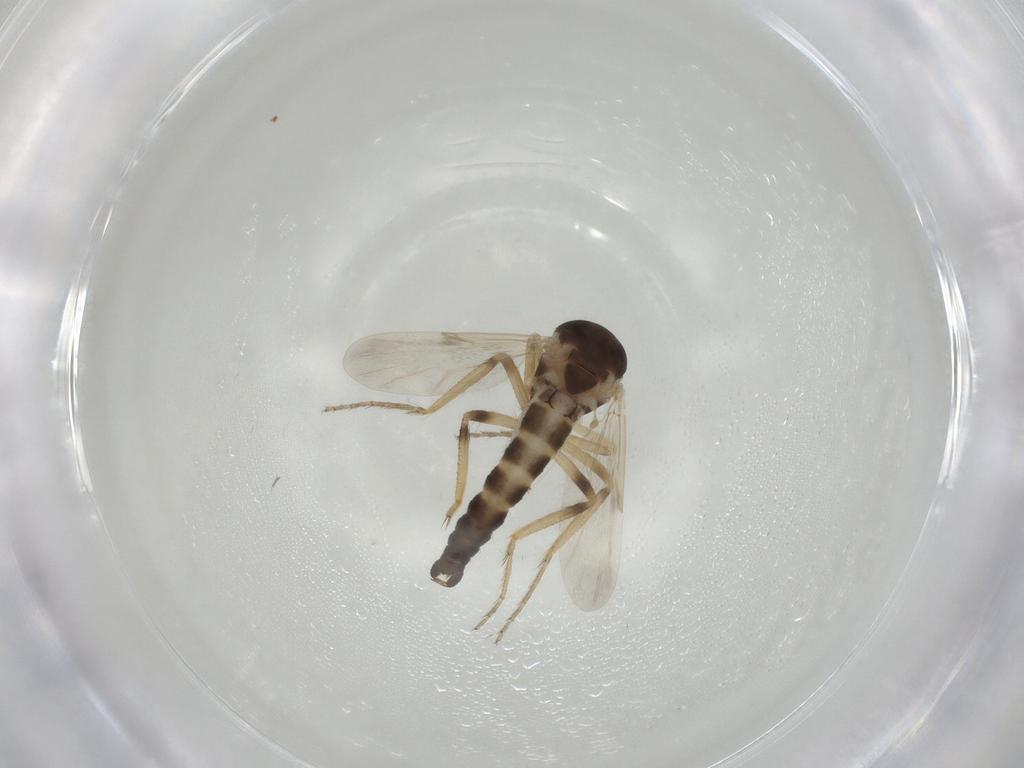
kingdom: Animalia
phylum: Arthropoda
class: Insecta
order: Diptera
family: Ceratopogonidae
